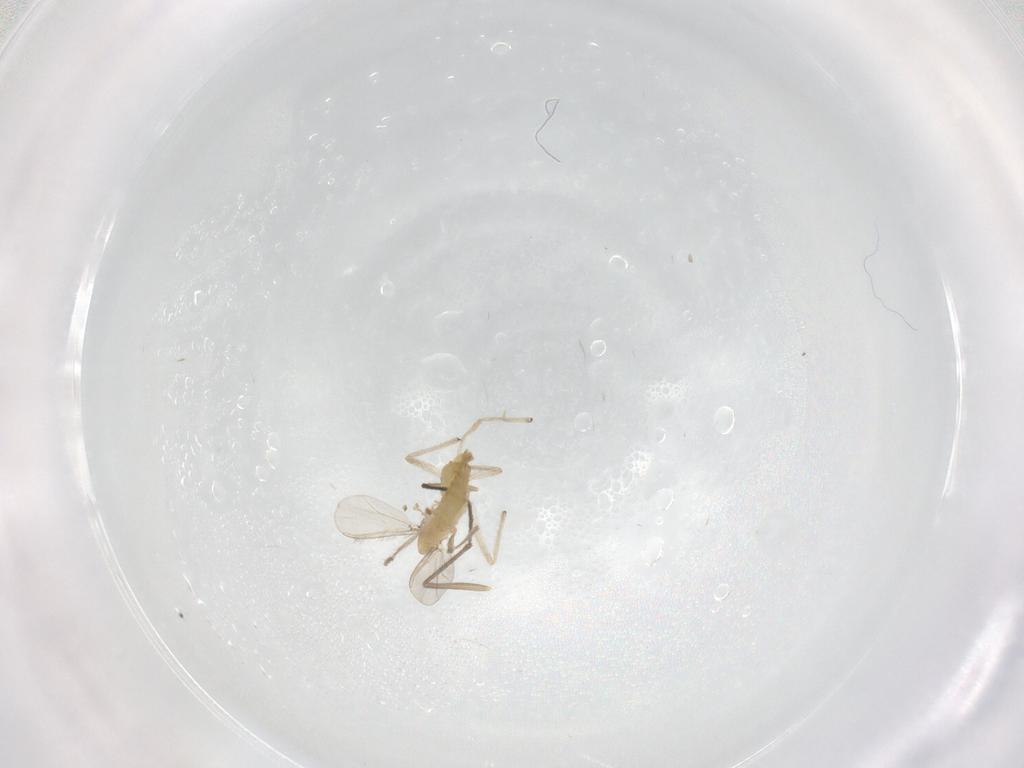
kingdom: Animalia
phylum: Arthropoda
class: Insecta
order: Diptera
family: Chironomidae
